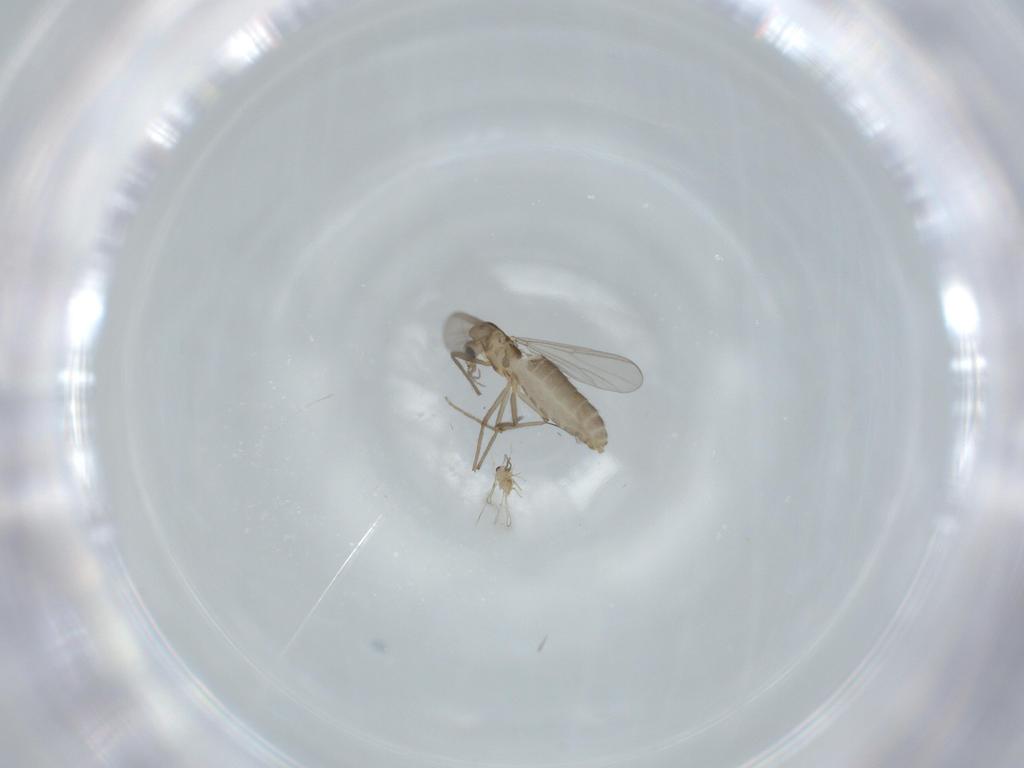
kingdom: Animalia
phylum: Arthropoda
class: Insecta
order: Diptera
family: Chironomidae
